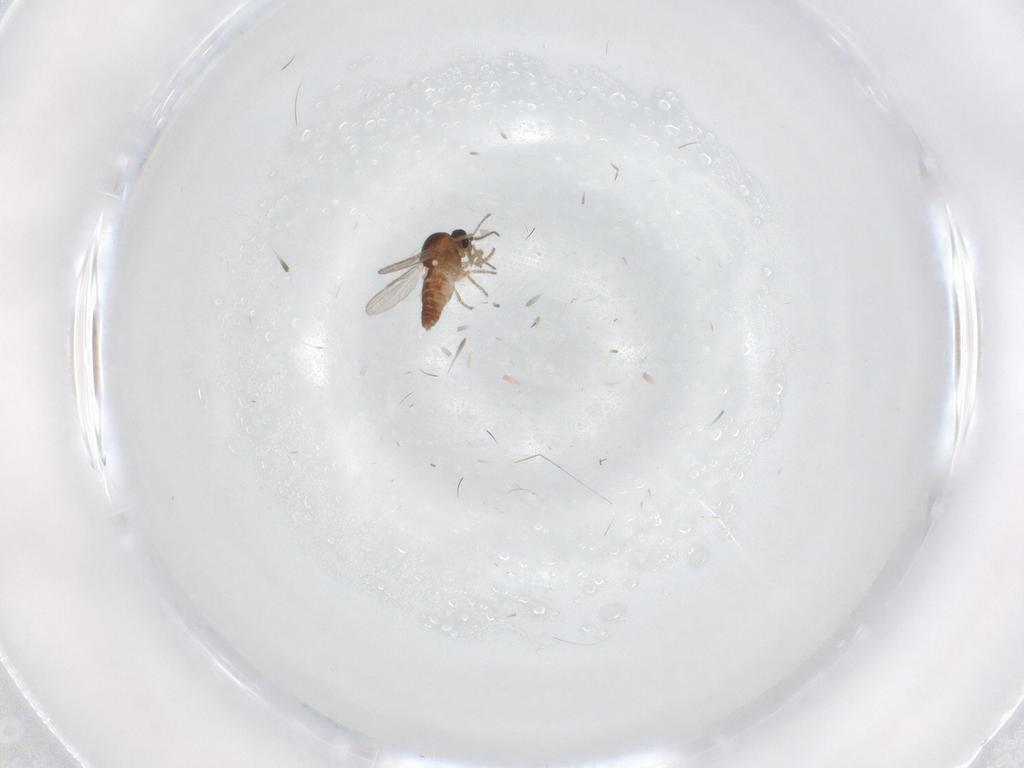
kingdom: Animalia
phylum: Arthropoda
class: Insecta
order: Diptera
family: Ceratopogonidae
